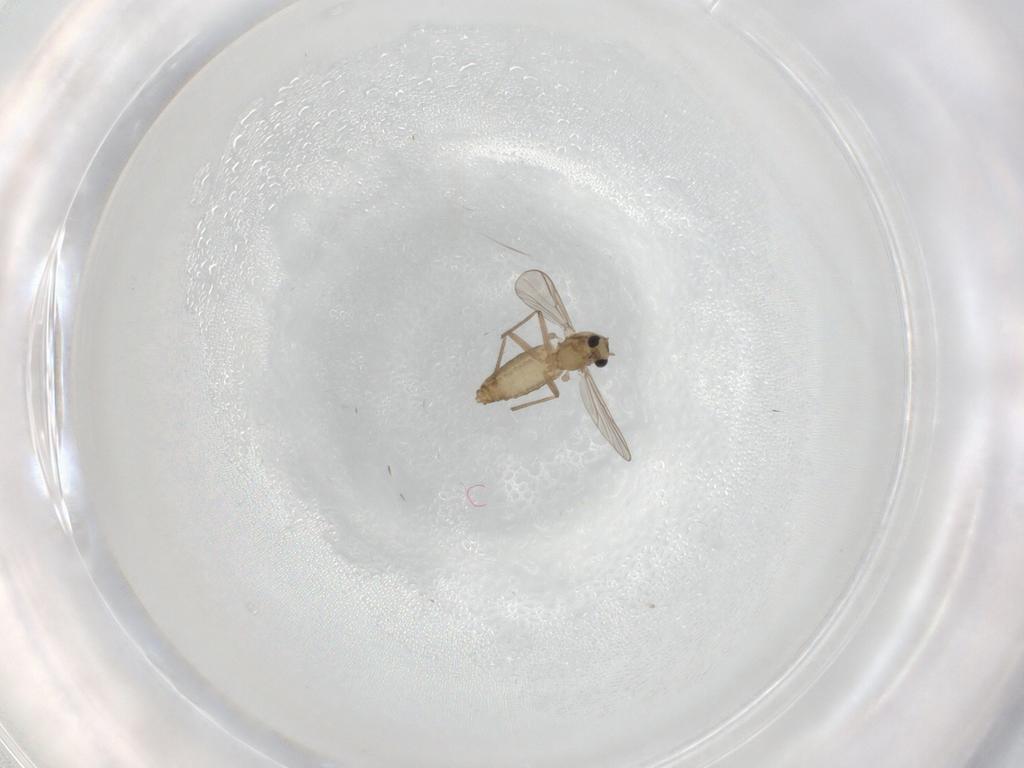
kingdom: Animalia
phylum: Arthropoda
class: Insecta
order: Diptera
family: Chironomidae
